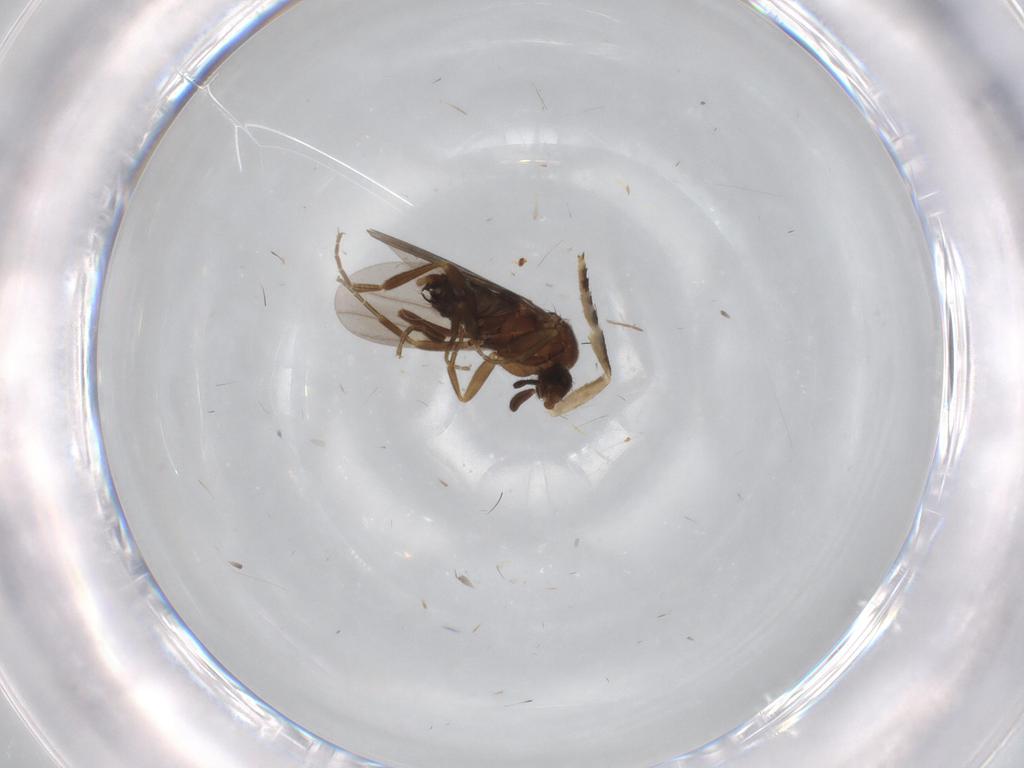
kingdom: Animalia
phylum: Arthropoda
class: Insecta
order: Diptera
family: Phoridae
